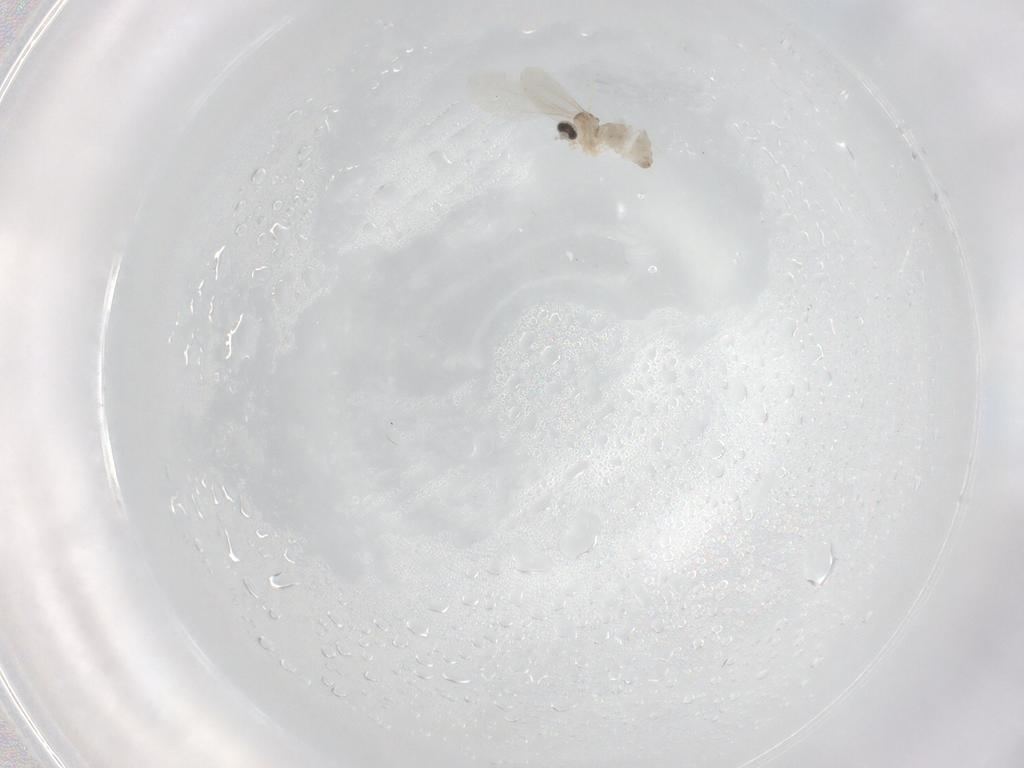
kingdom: Animalia
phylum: Arthropoda
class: Insecta
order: Diptera
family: Cecidomyiidae
